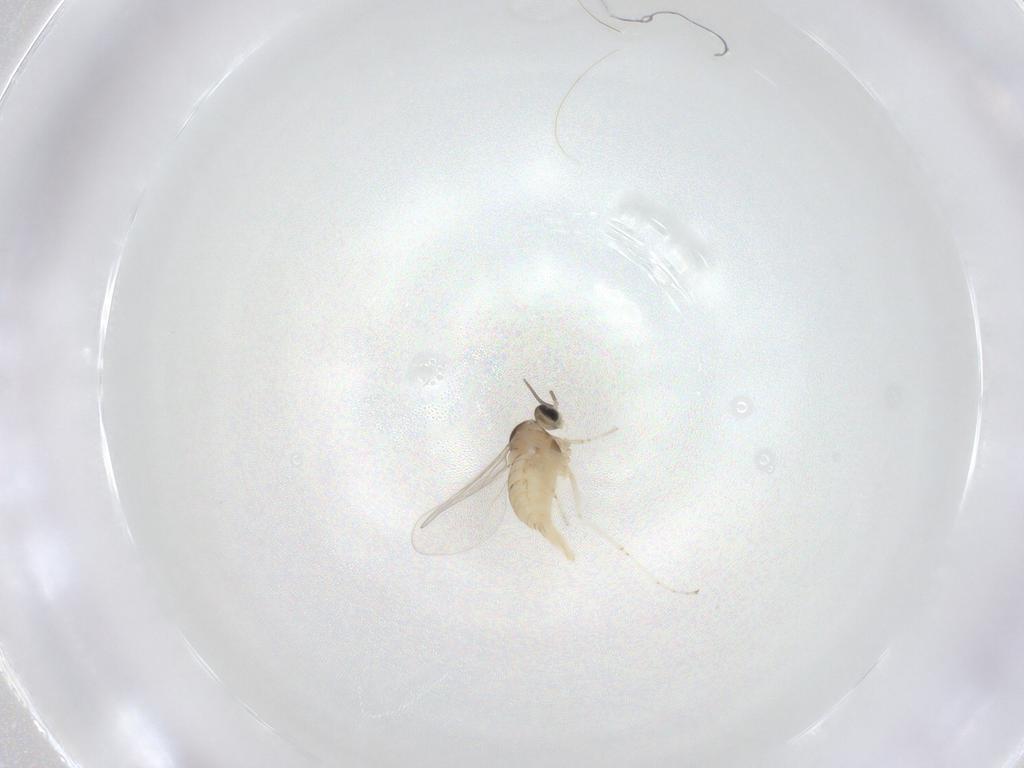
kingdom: Animalia
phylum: Arthropoda
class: Insecta
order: Diptera
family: Cecidomyiidae
